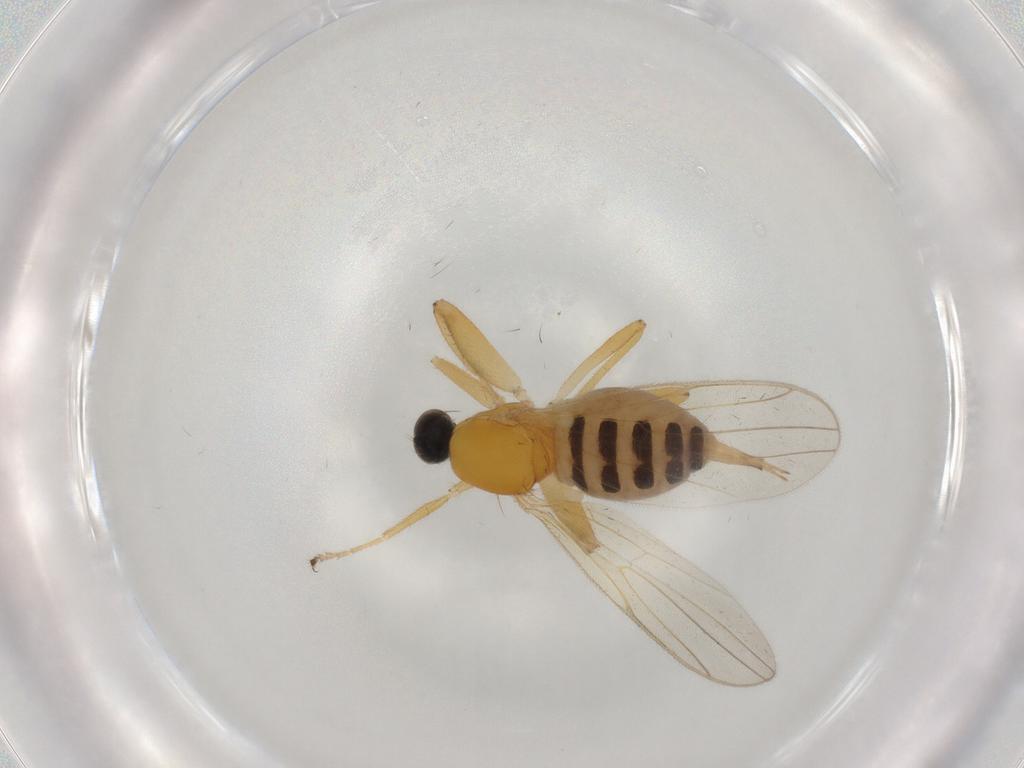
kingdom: Animalia
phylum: Arthropoda
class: Insecta
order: Diptera
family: Hybotidae
